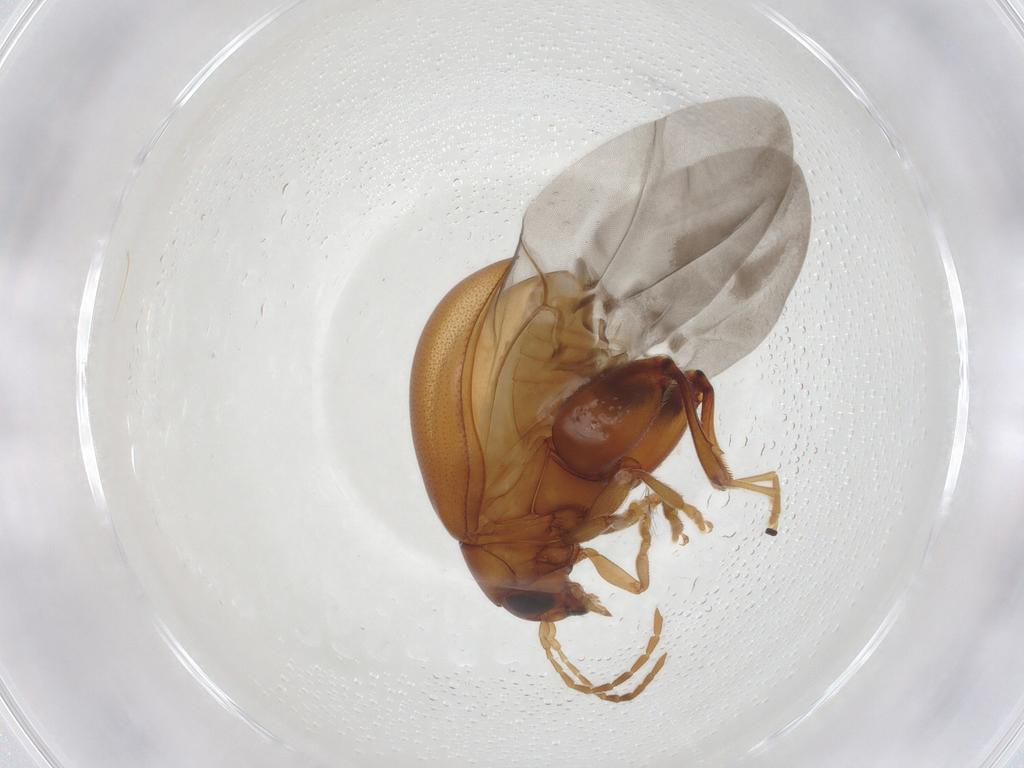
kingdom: Animalia
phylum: Arthropoda
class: Insecta
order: Coleoptera
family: Chrysomelidae
